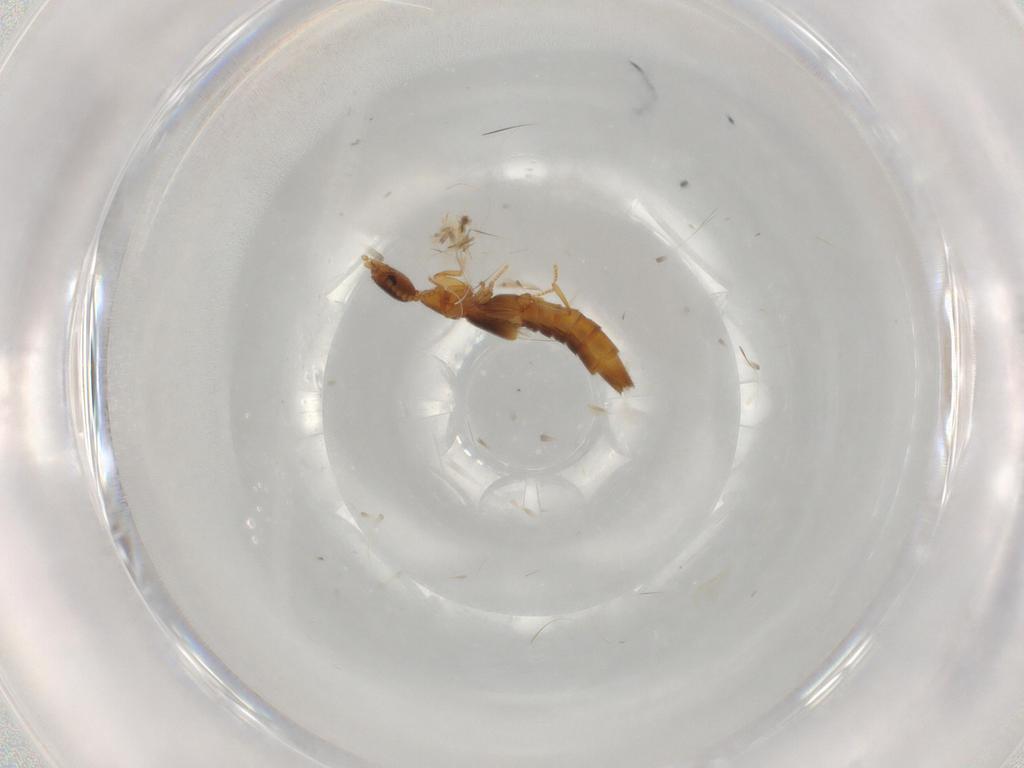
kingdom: Animalia
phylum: Arthropoda
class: Insecta
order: Coleoptera
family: Staphylinidae
